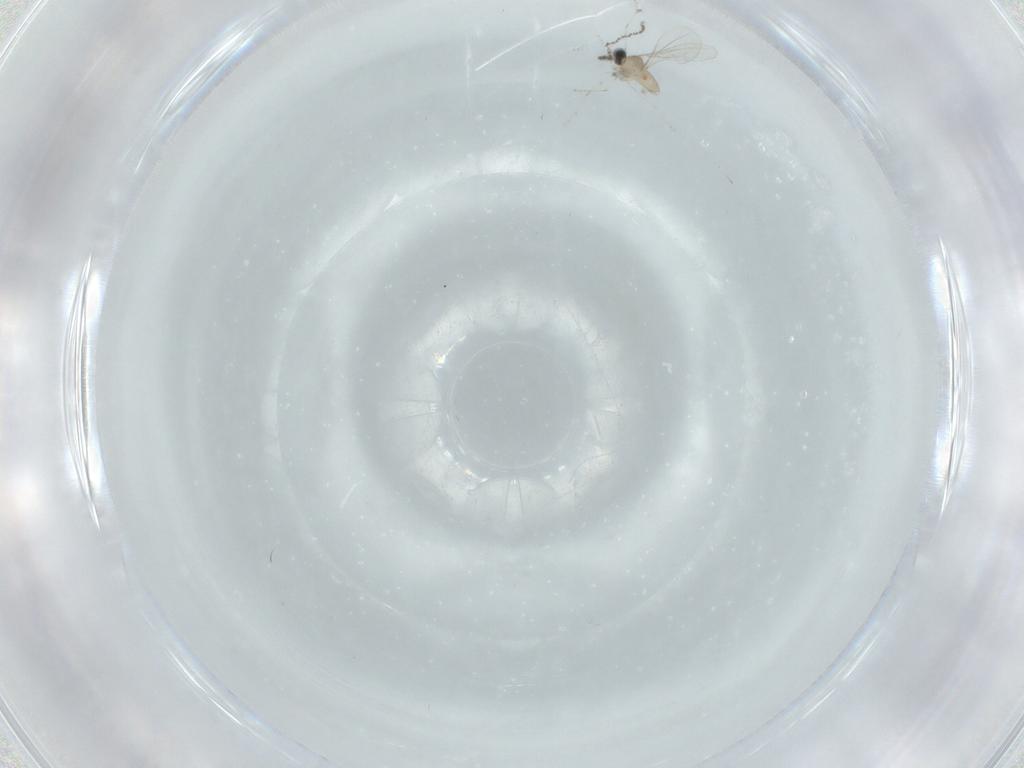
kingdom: Animalia
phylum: Arthropoda
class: Insecta
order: Diptera
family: Cecidomyiidae
